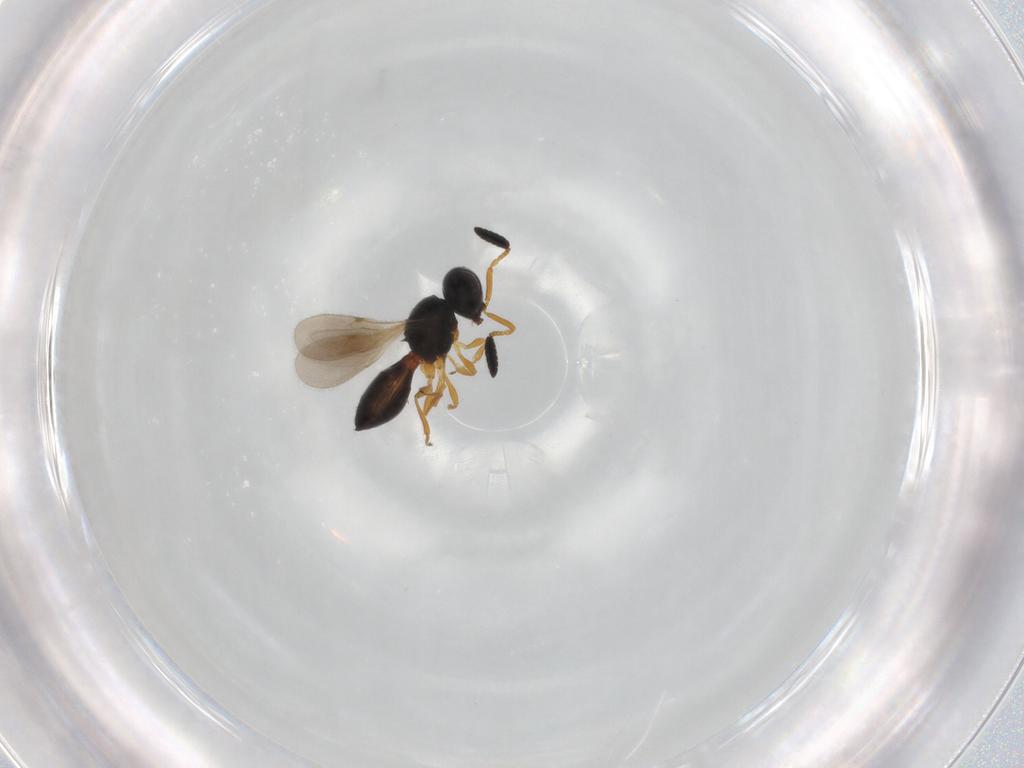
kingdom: Animalia
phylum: Arthropoda
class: Insecta
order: Hymenoptera
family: Scelionidae
